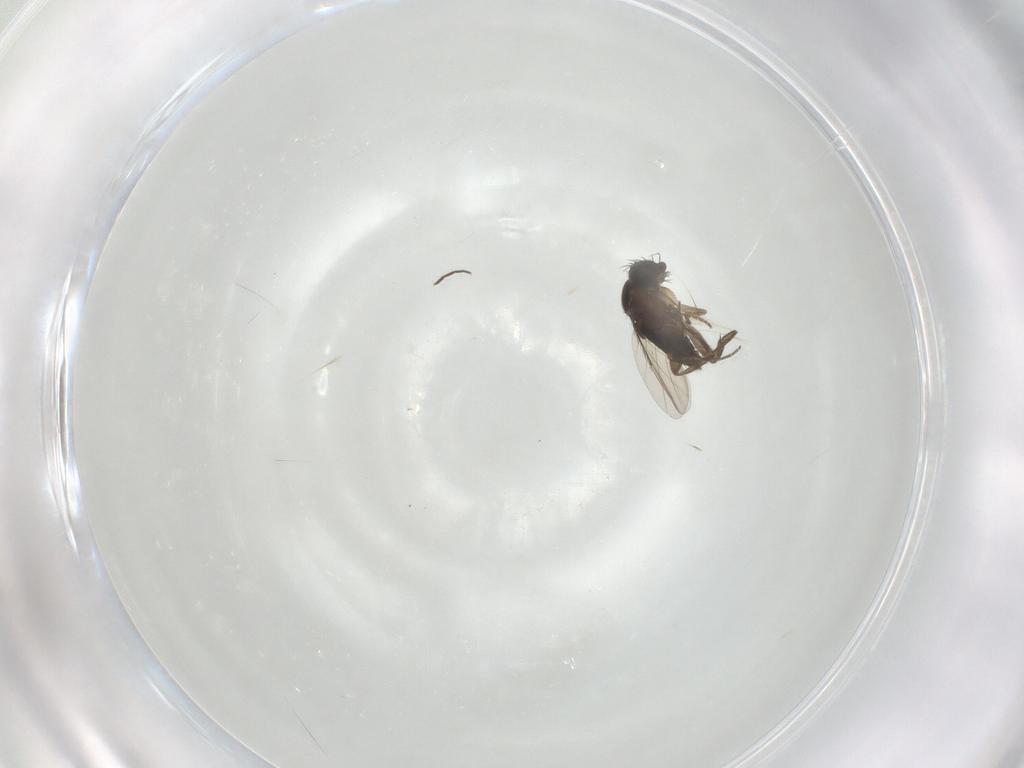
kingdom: Animalia
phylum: Arthropoda
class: Insecta
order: Diptera
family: Phoridae
